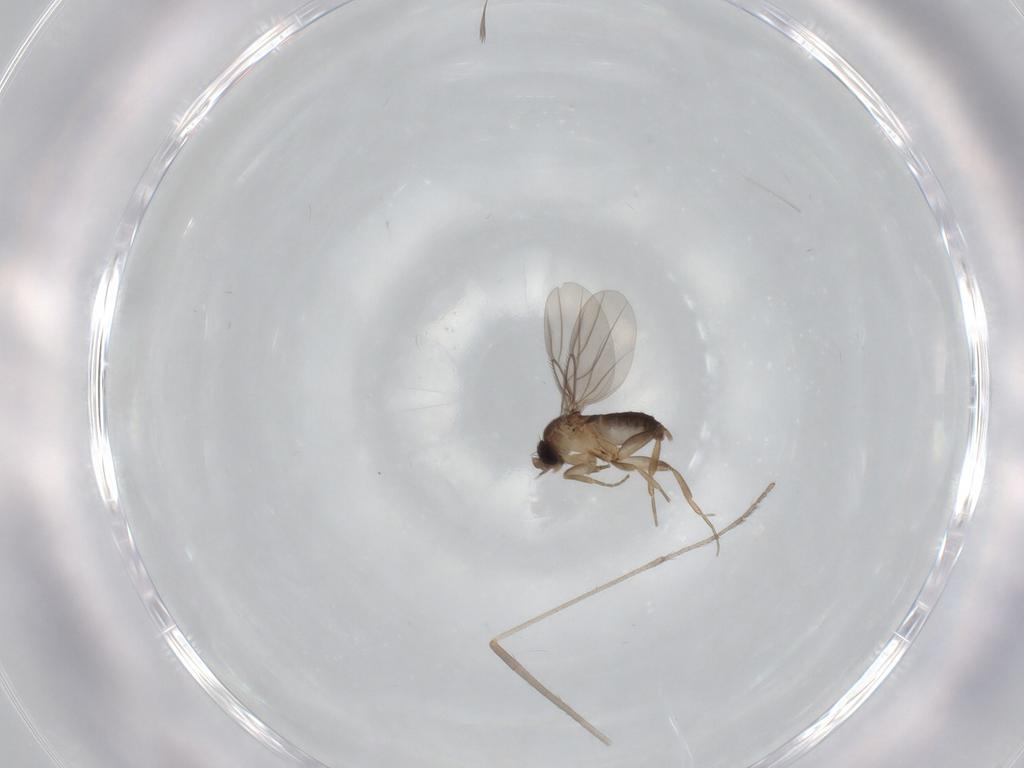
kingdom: Animalia
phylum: Arthropoda
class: Insecta
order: Diptera
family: Phoridae
